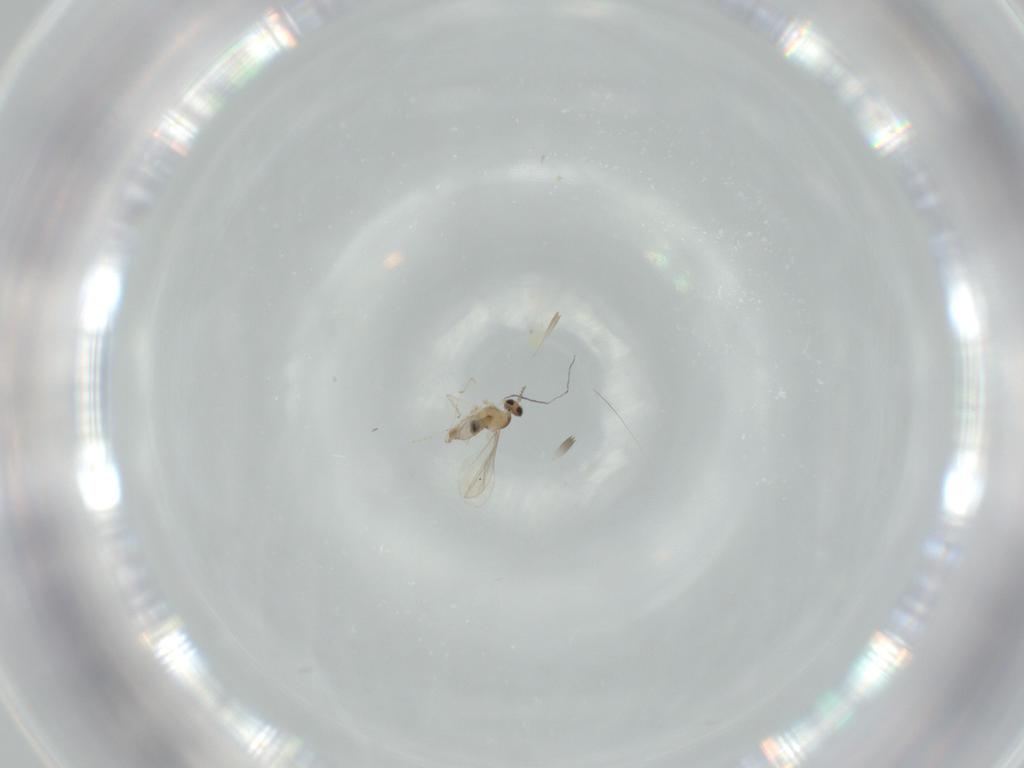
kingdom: Animalia
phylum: Arthropoda
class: Insecta
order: Diptera
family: Cecidomyiidae
